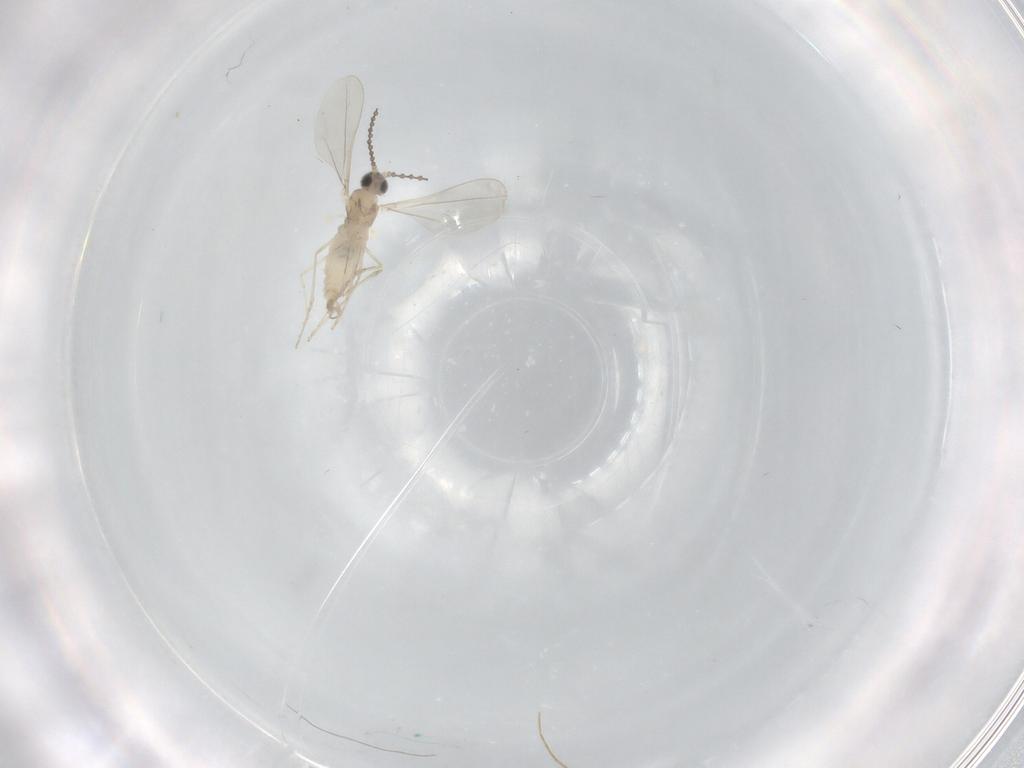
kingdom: Animalia
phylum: Arthropoda
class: Insecta
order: Diptera
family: Cecidomyiidae
